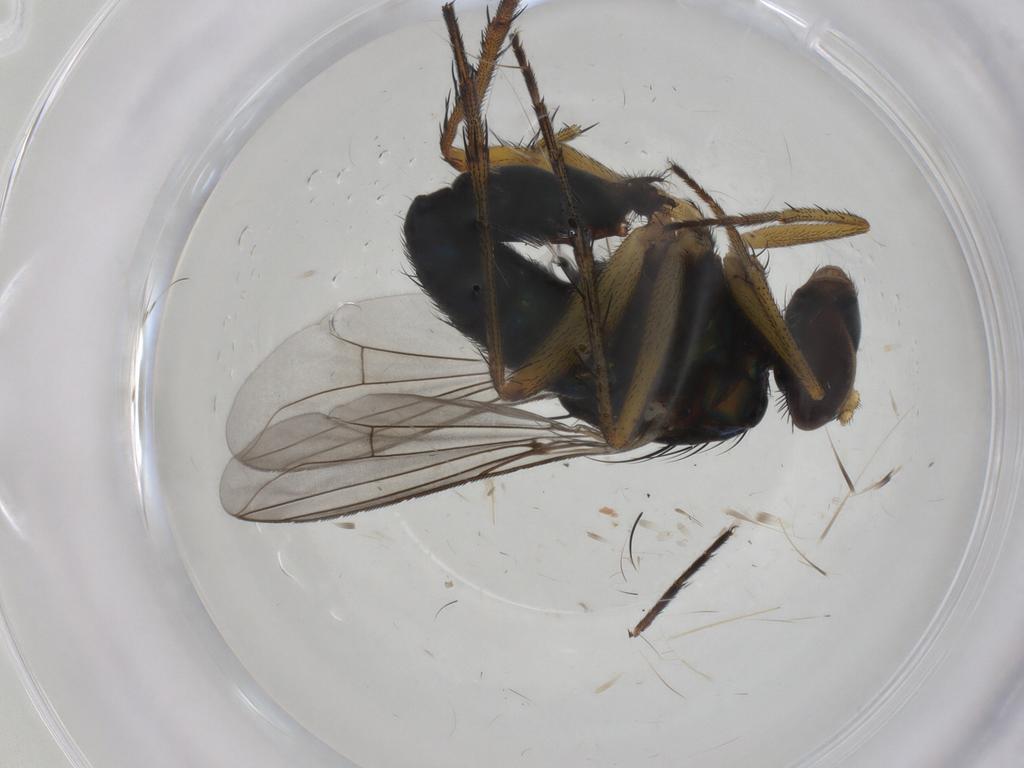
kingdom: Animalia
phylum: Arthropoda
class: Insecta
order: Diptera
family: Dolichopodidae
